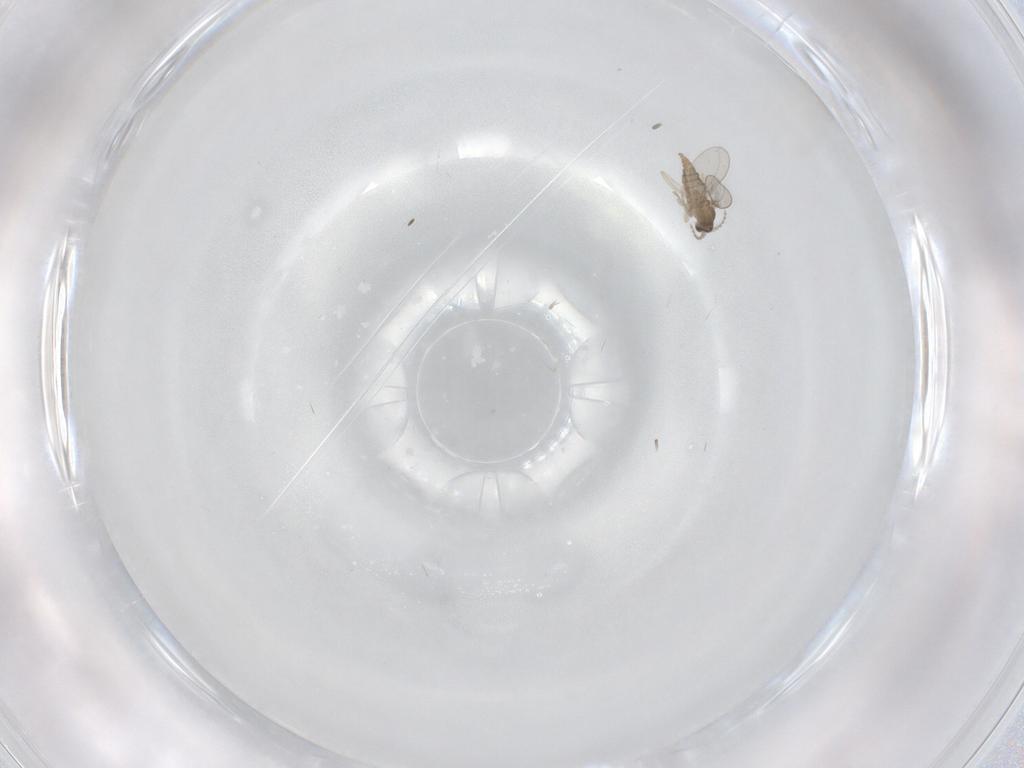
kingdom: Animalia
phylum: Arthropoda
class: Insecta
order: Diptera
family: Cecidomyiidae
